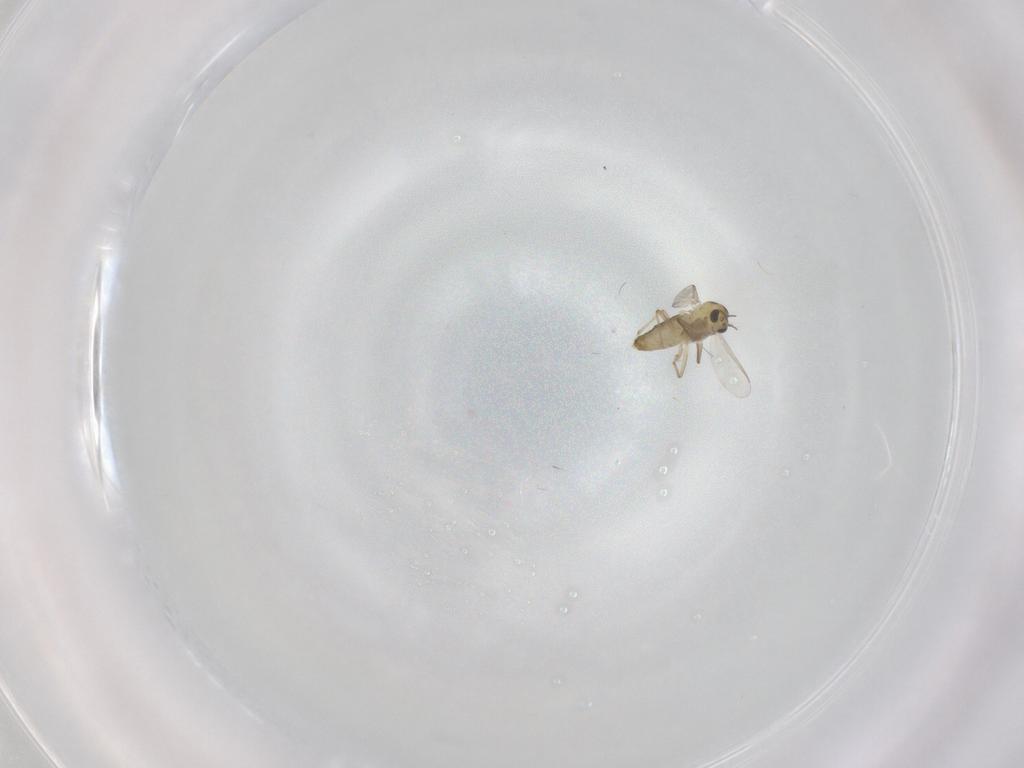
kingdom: Animalia
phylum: Arthropoda
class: Insecta
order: Diptera
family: Chironomidae
